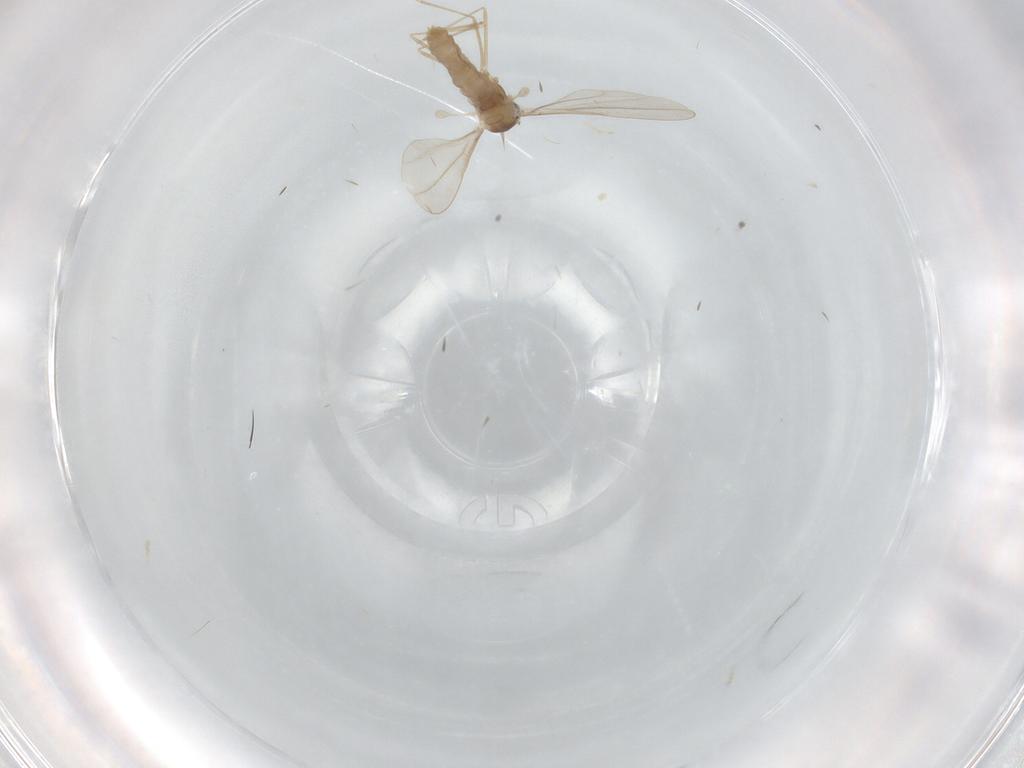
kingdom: Animalia
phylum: Arthropoda
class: Insecta
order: Diptera
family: Cecidomyiidae
